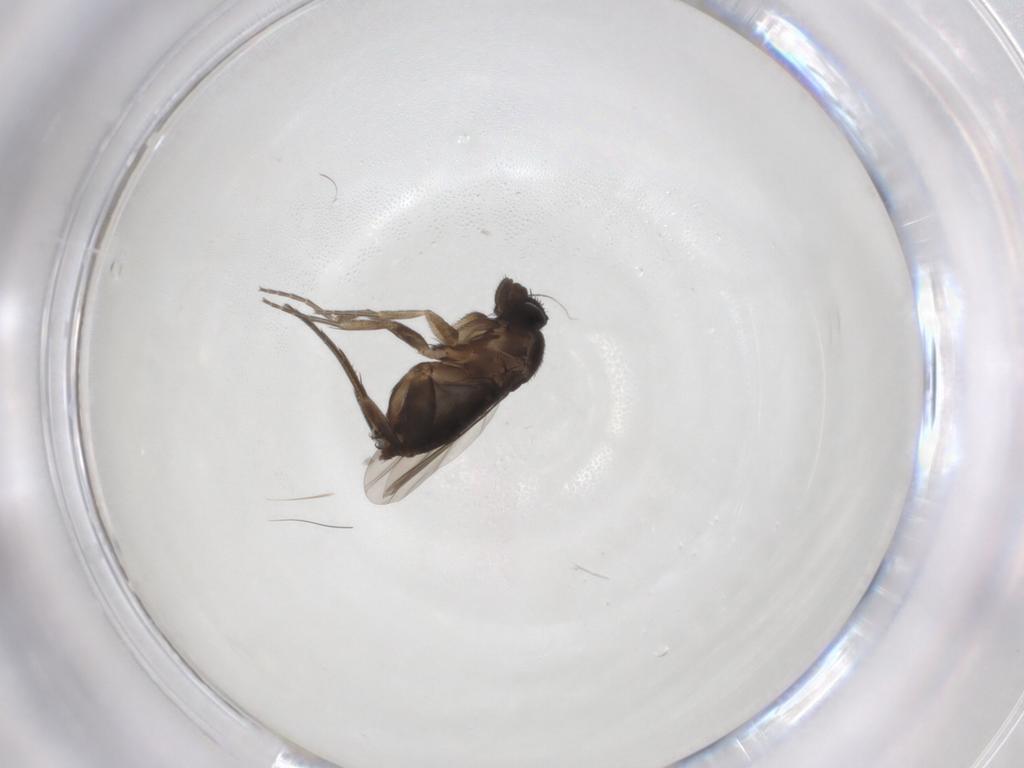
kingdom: Animalia
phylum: Arthropoda
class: Insecta
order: Diptera
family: Phoridae
